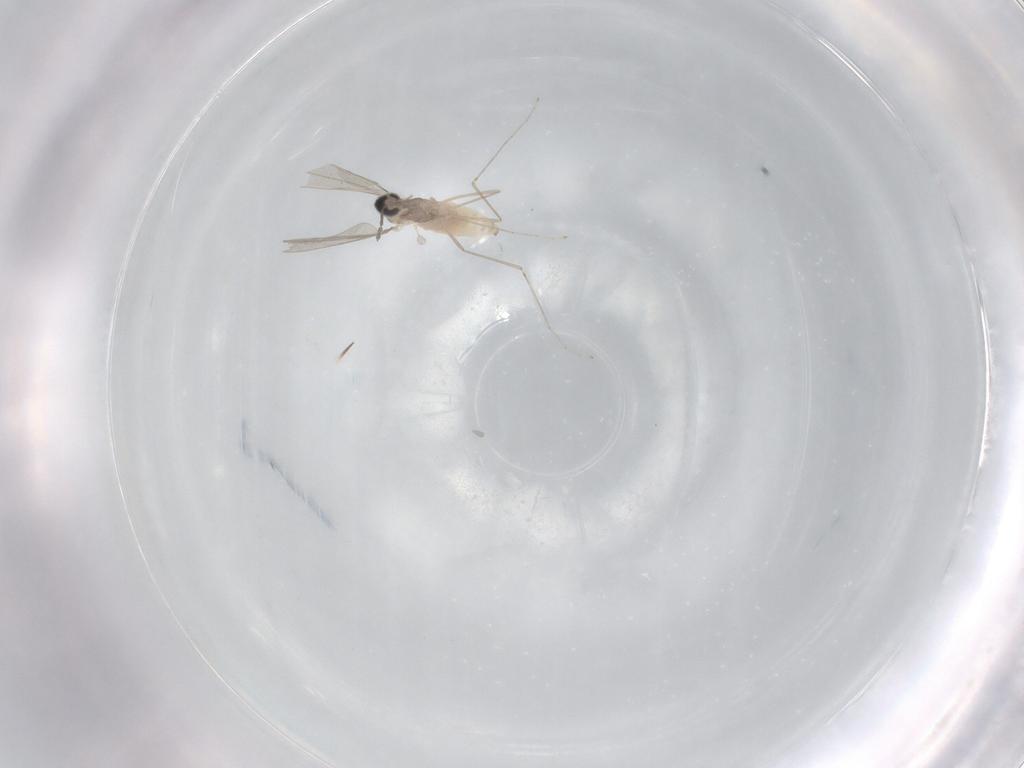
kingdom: Animalia
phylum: Arthropoda
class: Insecta
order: Diptera
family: Cecidomyiidae
